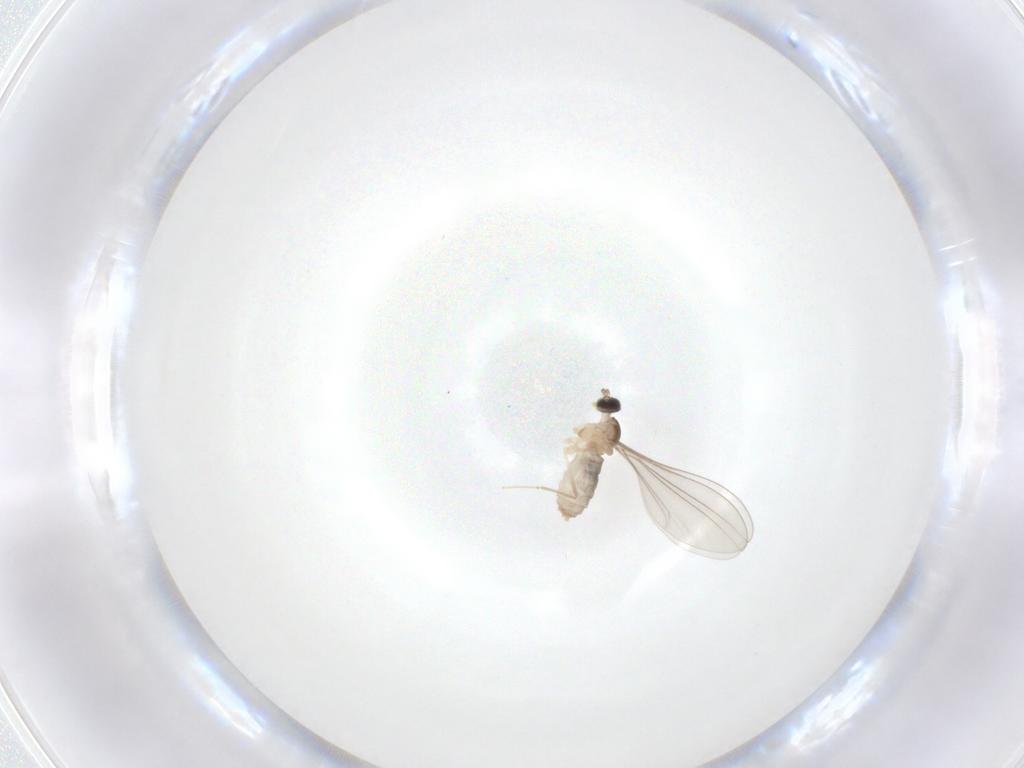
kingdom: Animalia
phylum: Arthropoda
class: Insecta
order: Diptera
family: Cecidomyiidae
